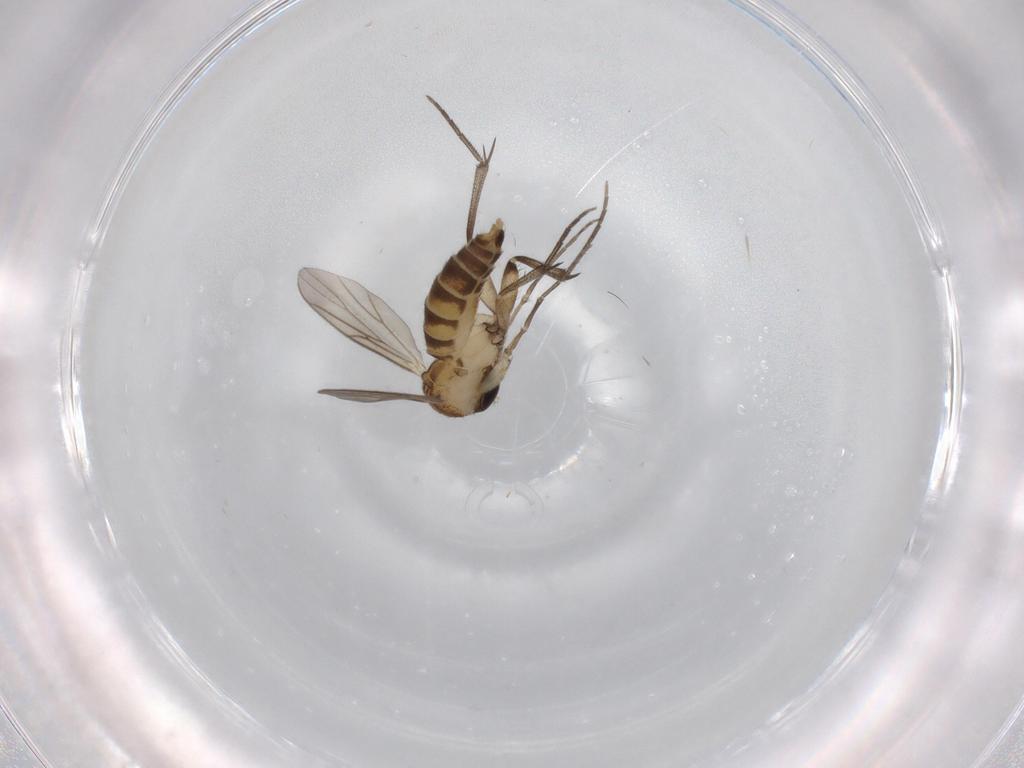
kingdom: Animalia
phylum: Arthropoda
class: Insecta
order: Diptera
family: Mycetophilidae
